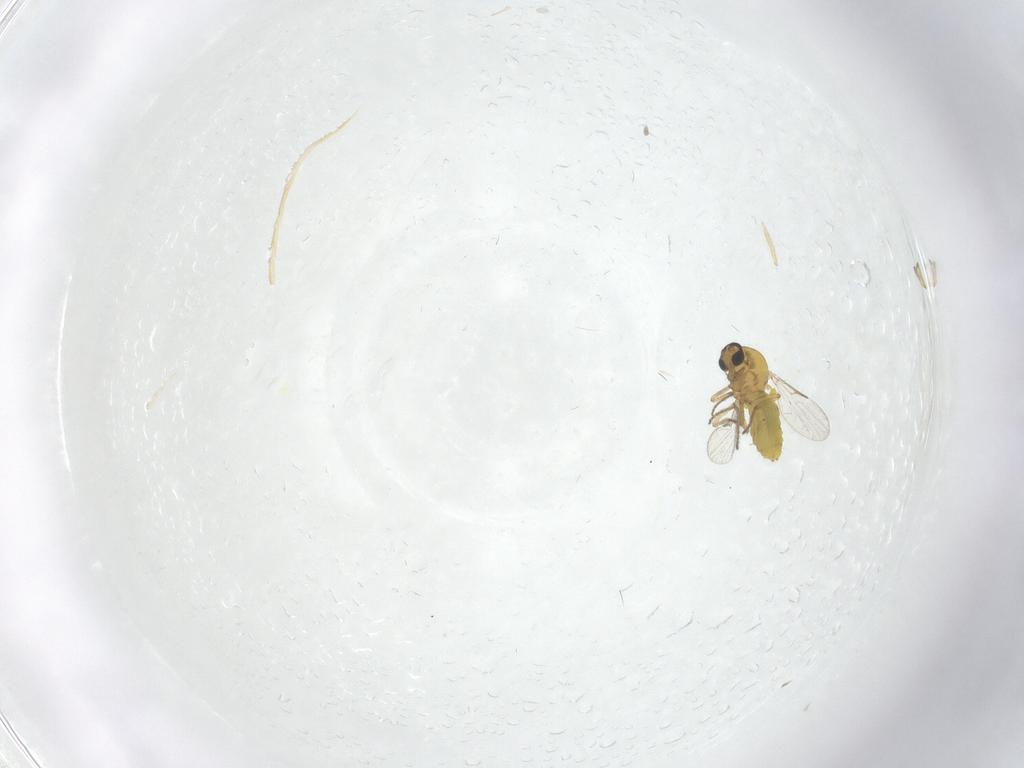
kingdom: Animalia
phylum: Arthropoda
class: Insecta
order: Diptera
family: Ceratopogonidae
